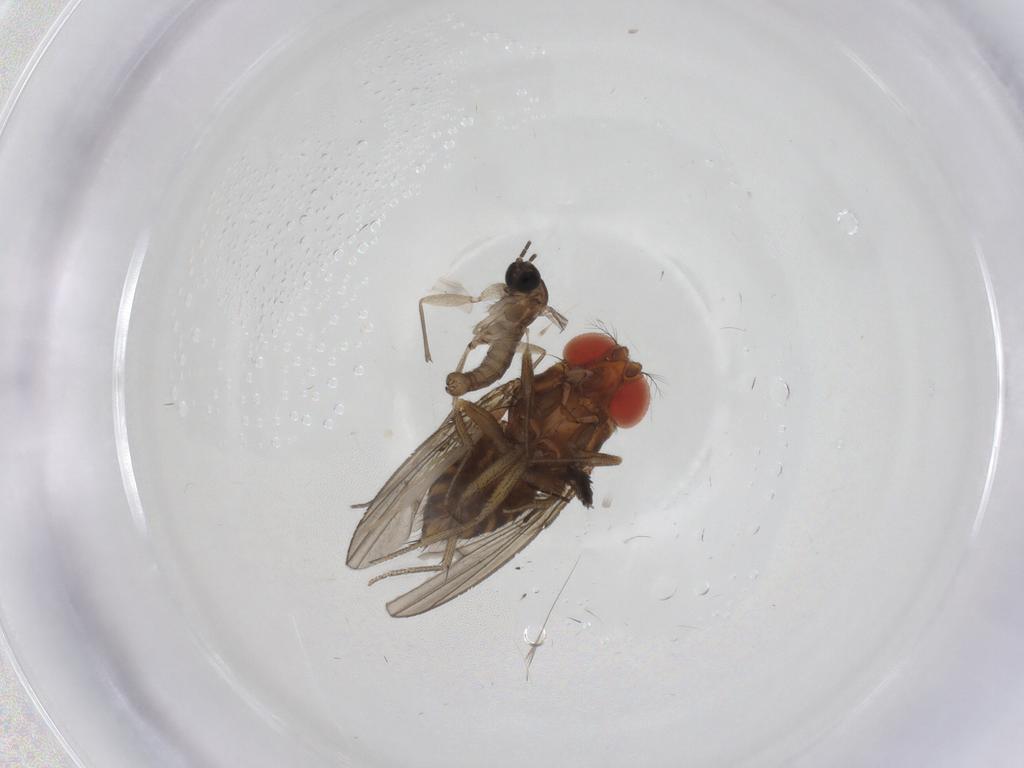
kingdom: Animalia
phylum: Arthropoda
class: Insecta
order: Diptera
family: Drosophilidae
